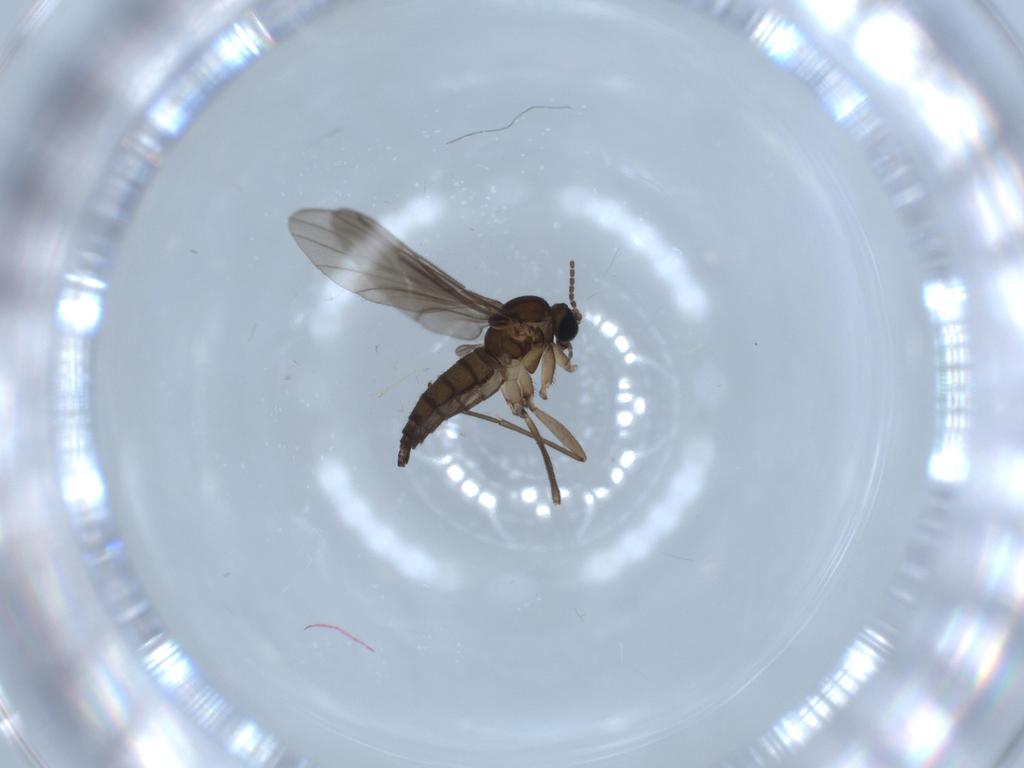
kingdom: Animalia
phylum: Arthropoda
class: Insecta
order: Diptera
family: Sciaridae
